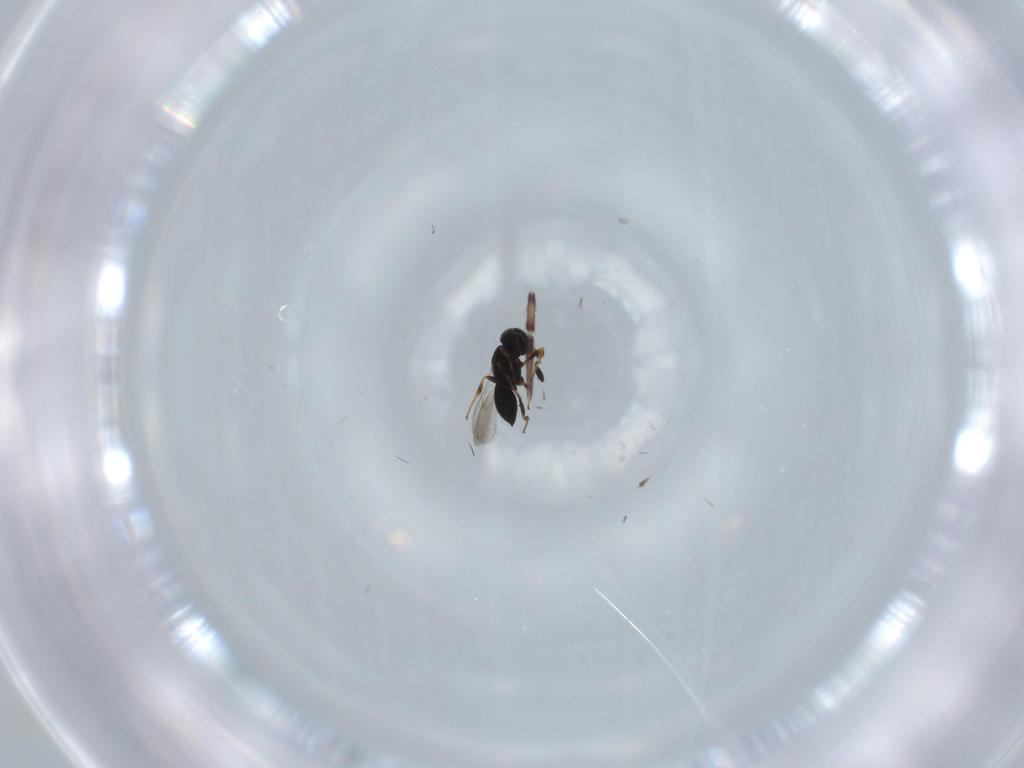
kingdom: Animalia
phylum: Arthropoda
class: Insecta
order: Hymenoptera
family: Scelionidae
